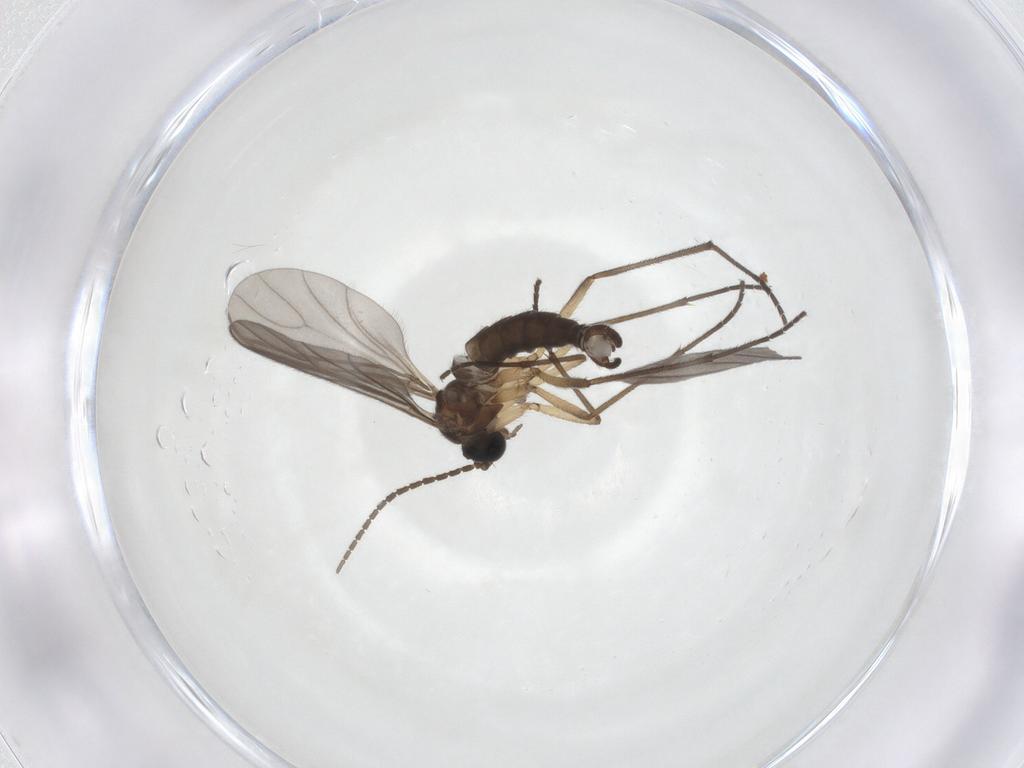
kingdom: Animalia
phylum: Arthropoda
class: Insecta
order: Diptera
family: Sciaridae
